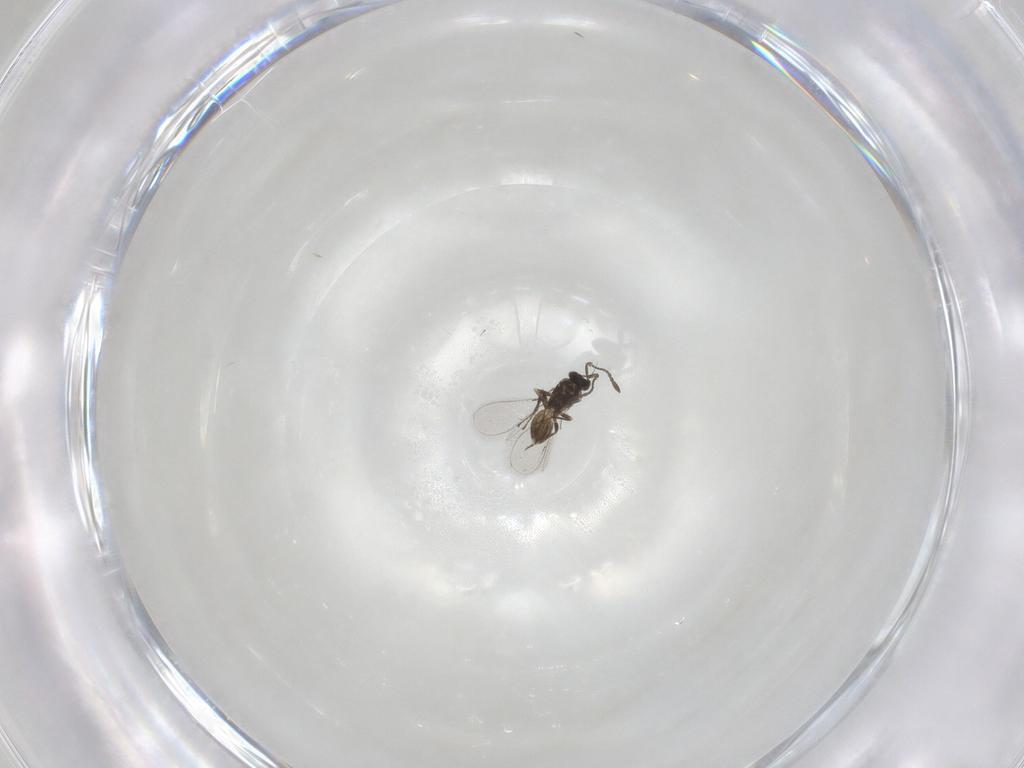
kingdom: Animalia
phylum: Arthropoda
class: Insecta
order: Hymenoptera
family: Mymaridae
